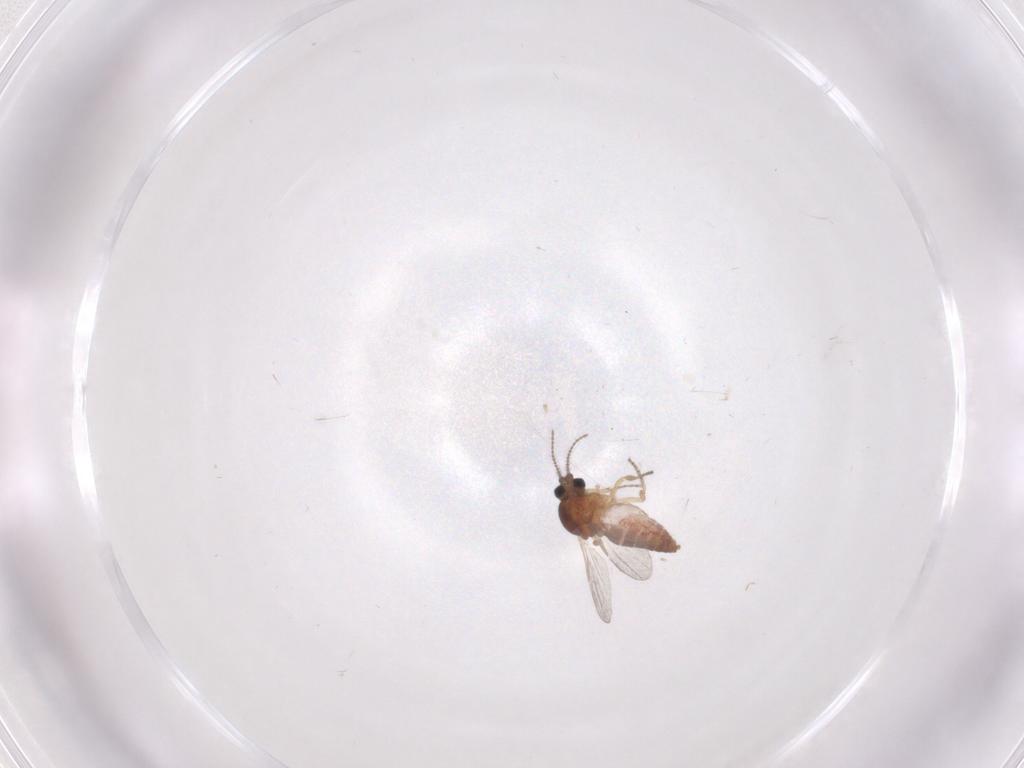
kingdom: Animalia
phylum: Arthropoda
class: Insecta
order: Diptera
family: Ceratopogonidae
